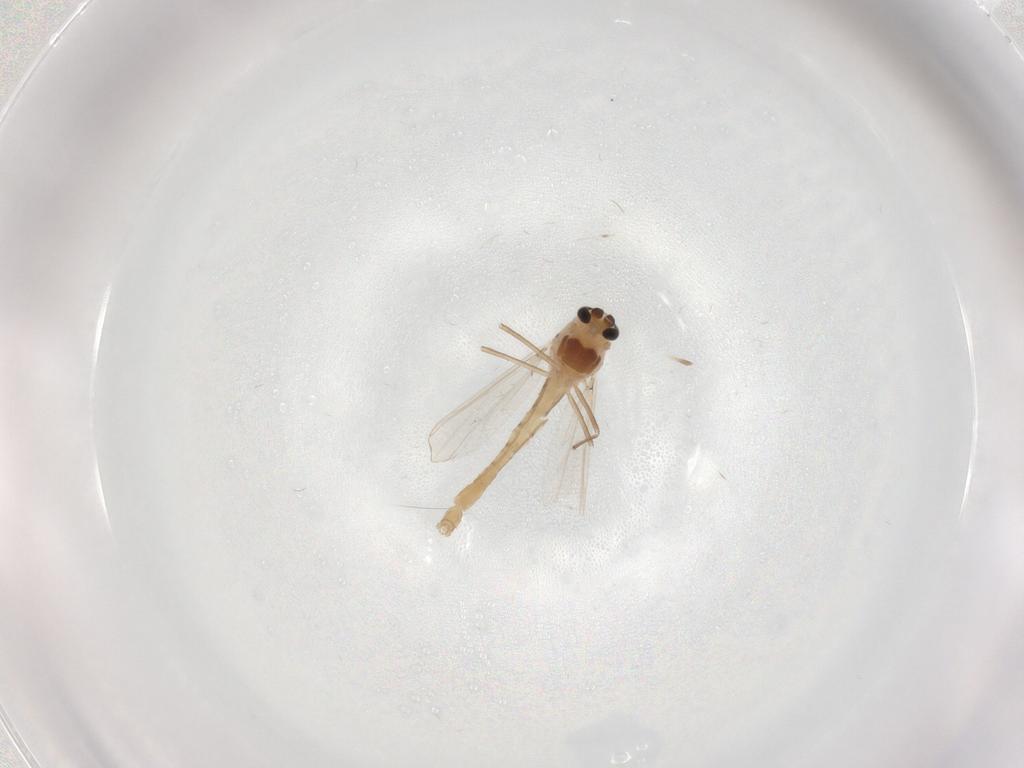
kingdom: Animalia
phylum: Arthropoda
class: Insecta
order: Diptera
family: Chironomidae
